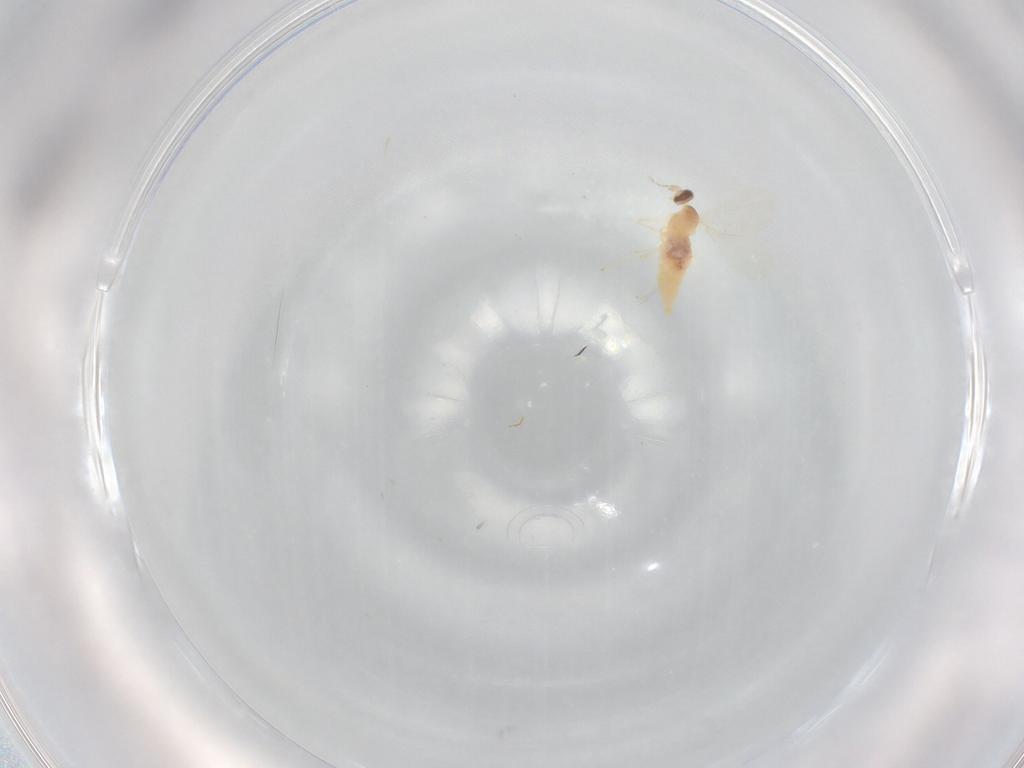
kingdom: Animalia
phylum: Arthropoda
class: Insecta
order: Diptera
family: Cecidomyiidae
